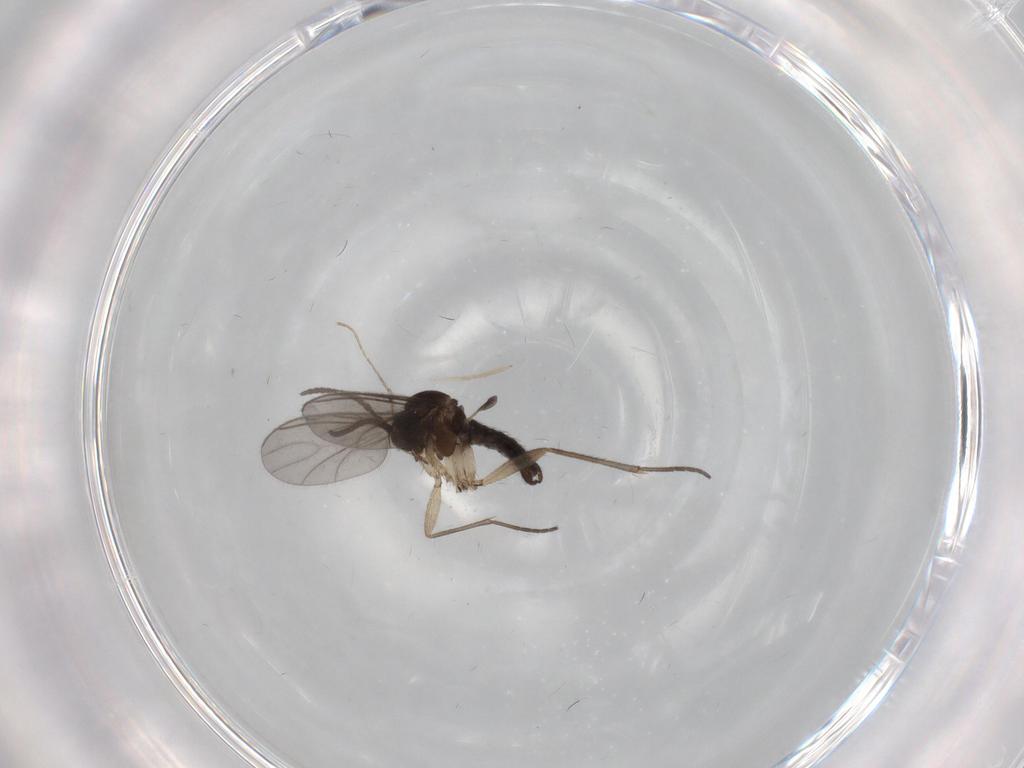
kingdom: Animalia
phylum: Arthropoda
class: Insecta
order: Diptera
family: Sciaridae
